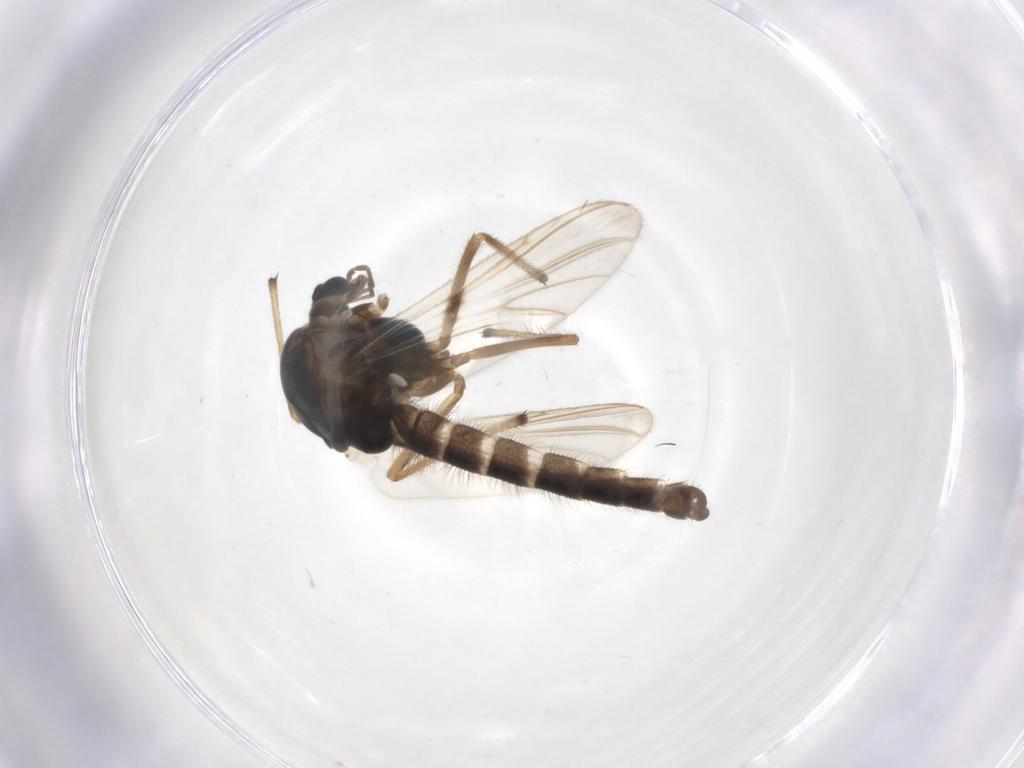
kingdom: Animalia
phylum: Arthropoda
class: Insecta
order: Diptera
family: Chironomidae
